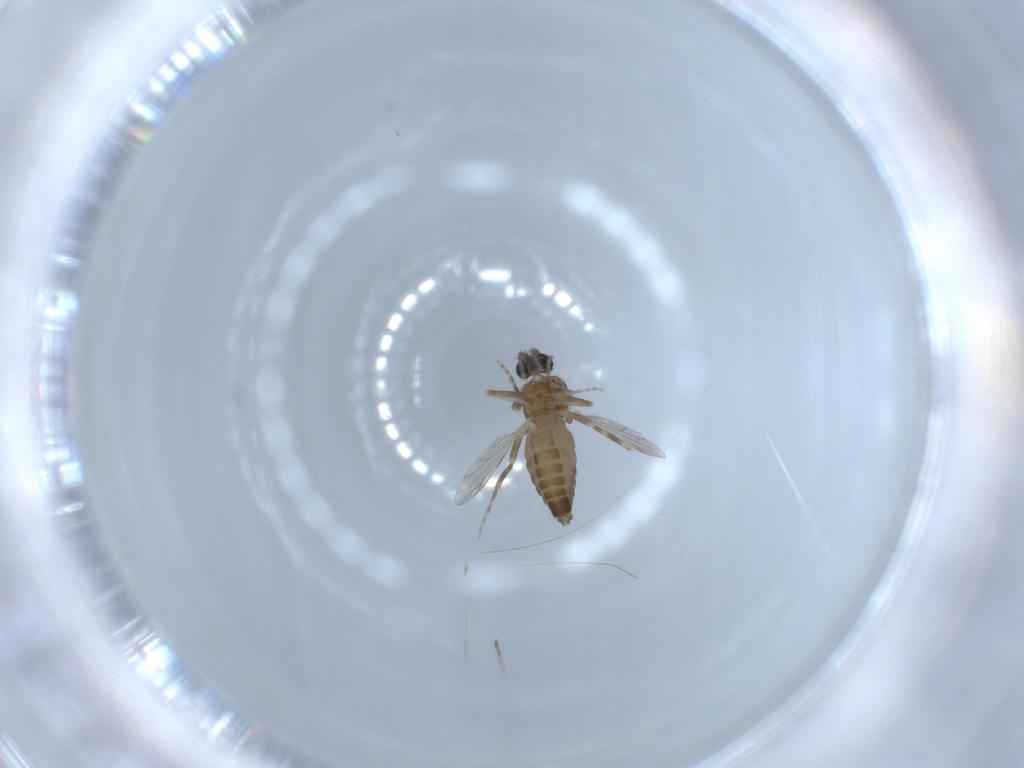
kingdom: Animalia
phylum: Arthropoda
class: Insecta
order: Diptera
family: Ceratopogonidae
